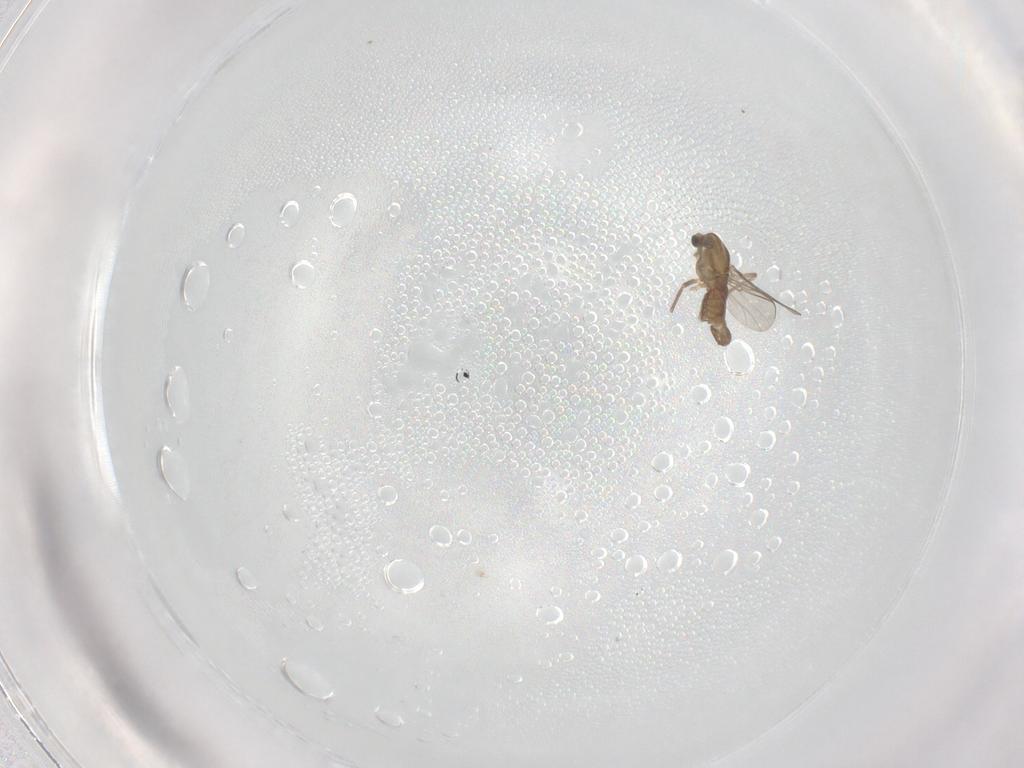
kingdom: Animalia
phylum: Arthropoda
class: Insecta
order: Diptera
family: Chironomidae
